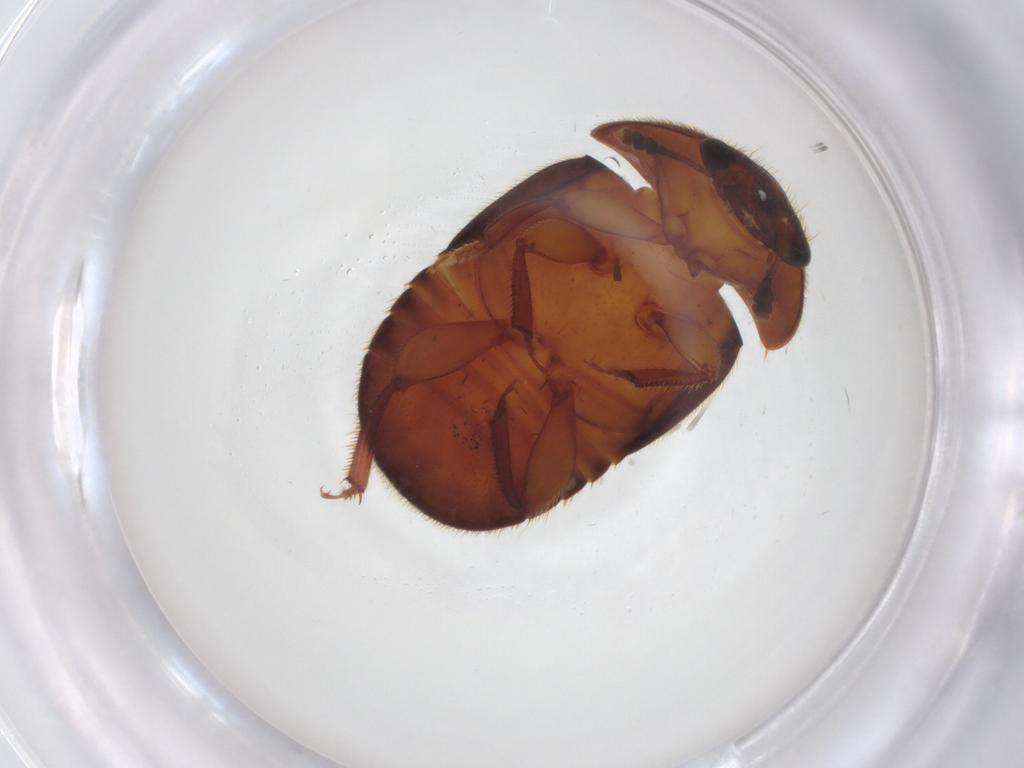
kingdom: Animalia
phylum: Arthropoda
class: Insecta
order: Coleoptera
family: Nitidulidae
